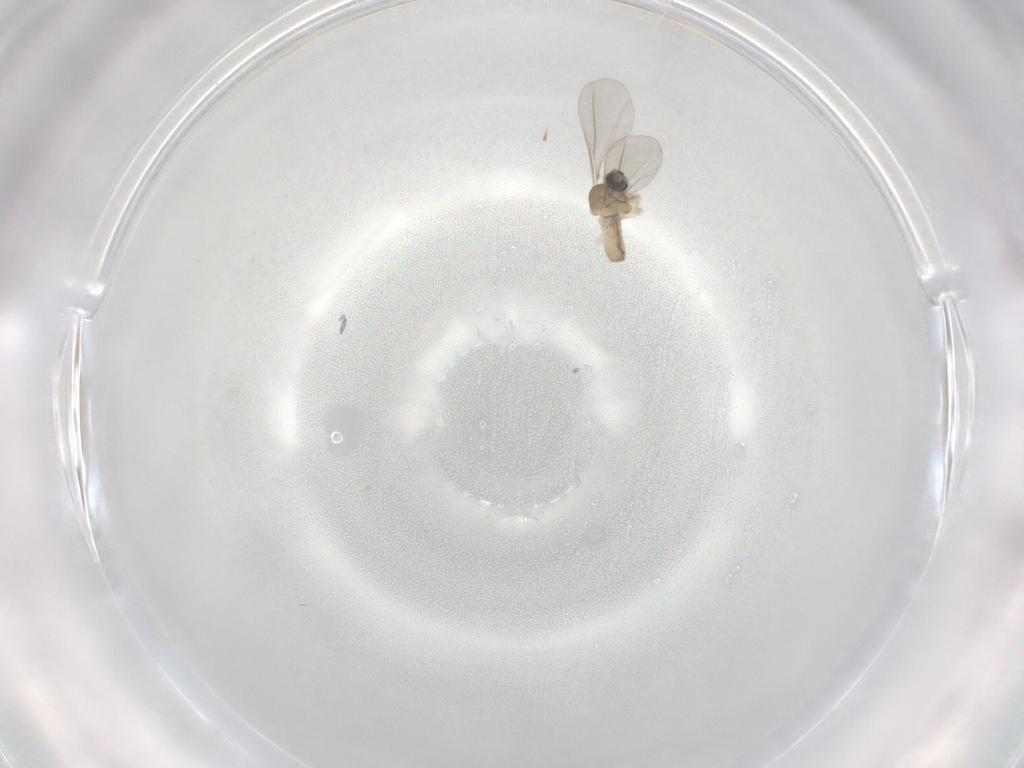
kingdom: Animalia
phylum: Arthropoda
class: Insecta
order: Diptera
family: Cecidomyiidae
